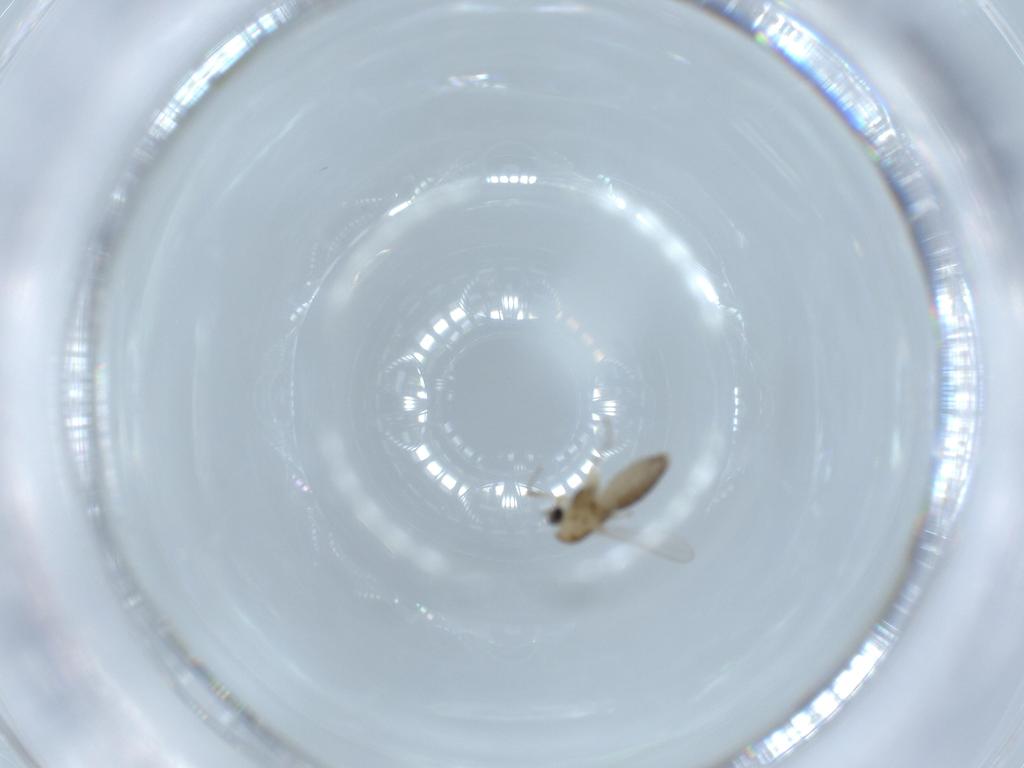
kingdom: Animalia
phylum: Arthropoda
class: Insecta
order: Diptera
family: Chironomidae
